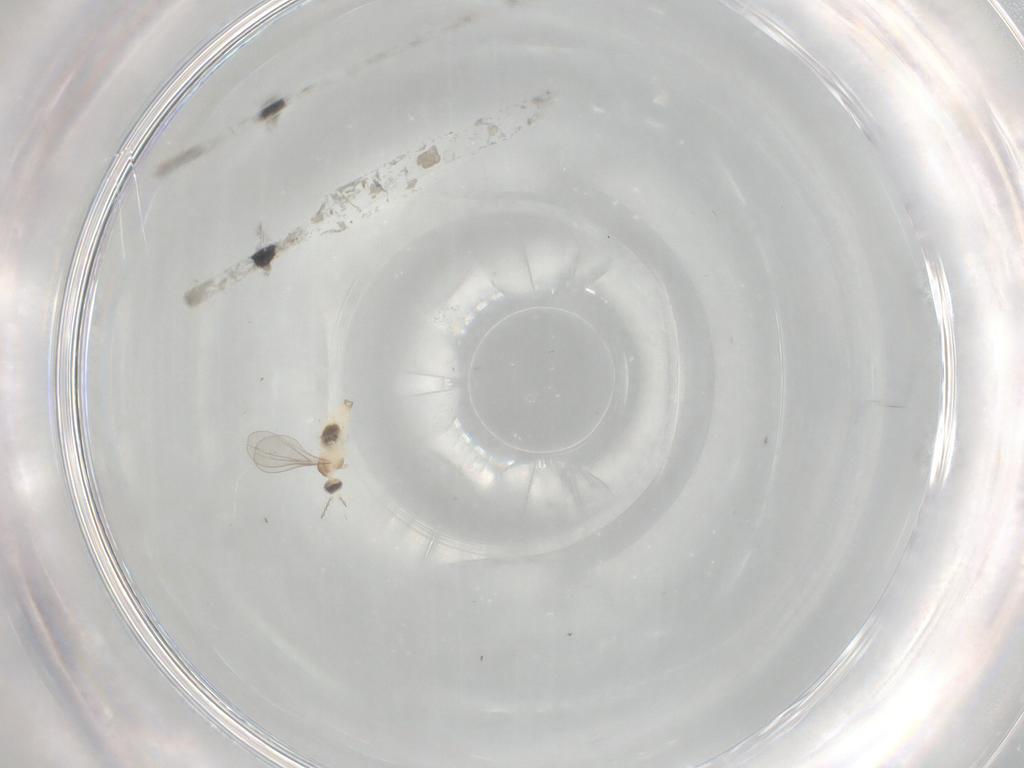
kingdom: Animalia
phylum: Arthropoda
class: Insecta
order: Diptera
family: Cecidomyiidae
